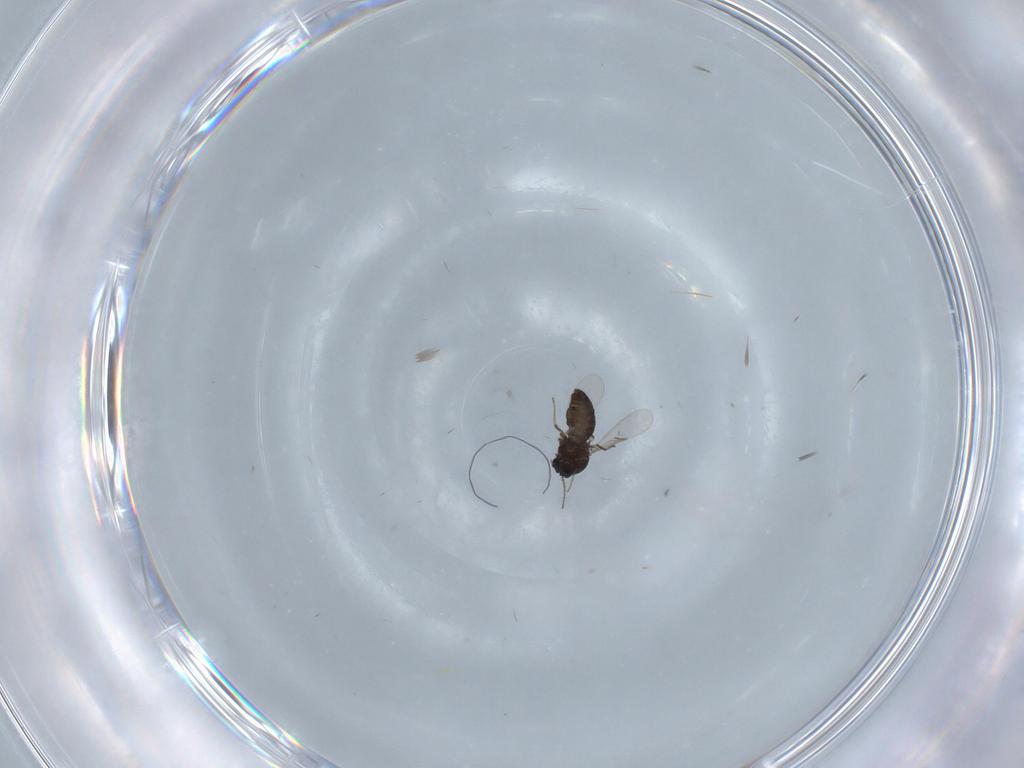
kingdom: Animalia
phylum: Arthropoda
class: Insecta
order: Diptera
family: Ceratopogonidae
